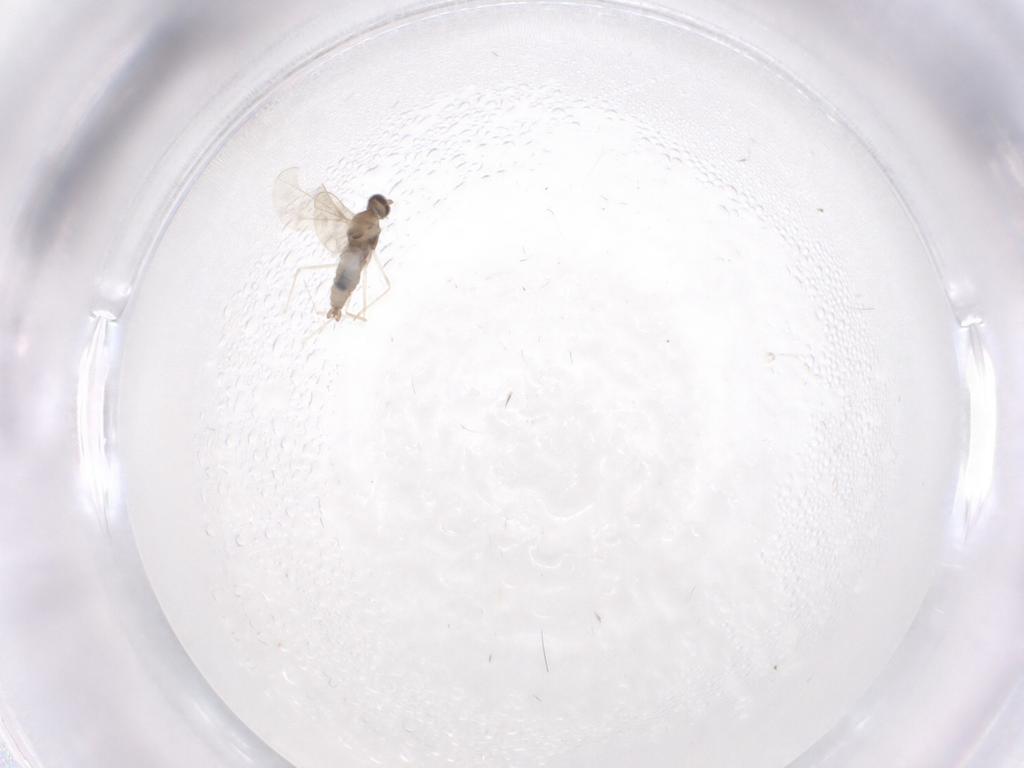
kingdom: Animalia
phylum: Arthropoda
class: Insecta
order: Diptera
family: Cecidomyiidae
